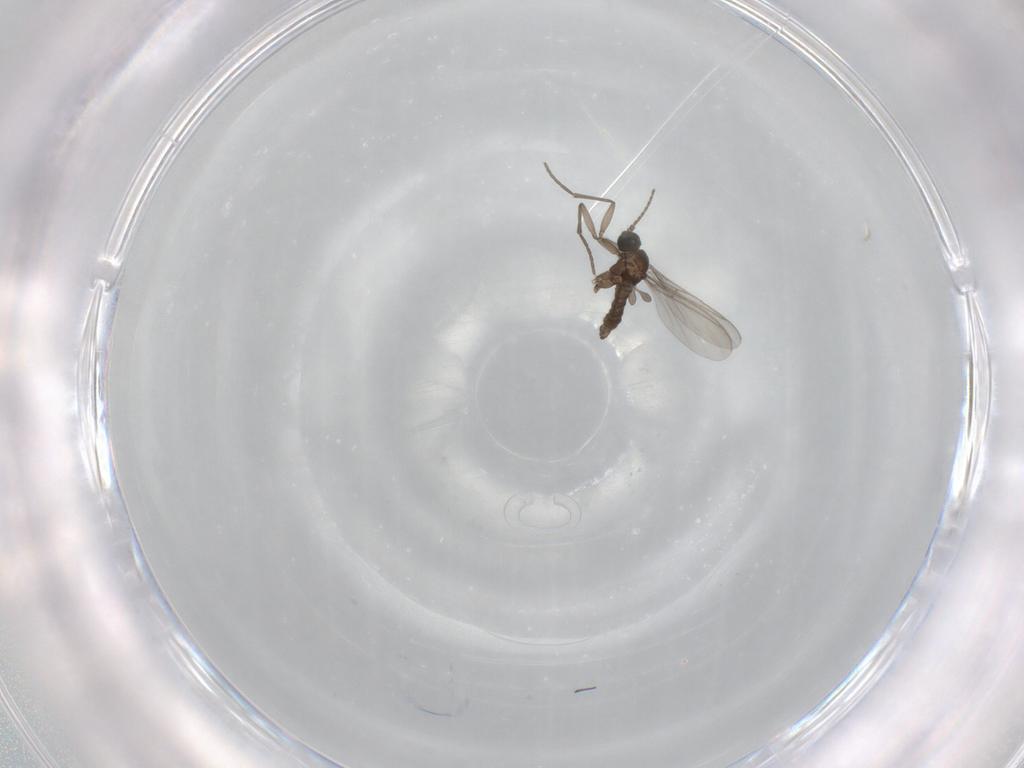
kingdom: Animalia
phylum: Arthropoda
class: Insecta
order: Diptera
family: Sciaridae
